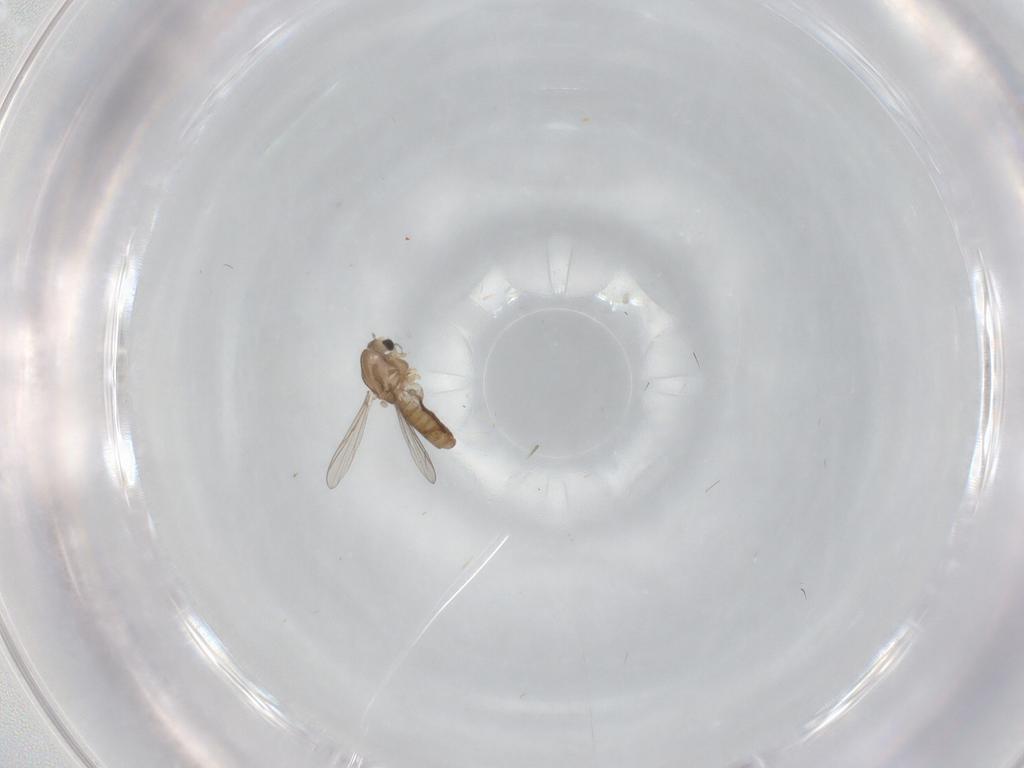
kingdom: Animalia
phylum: Arthropoda
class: Insecta
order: Diptera
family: Chironomidae
